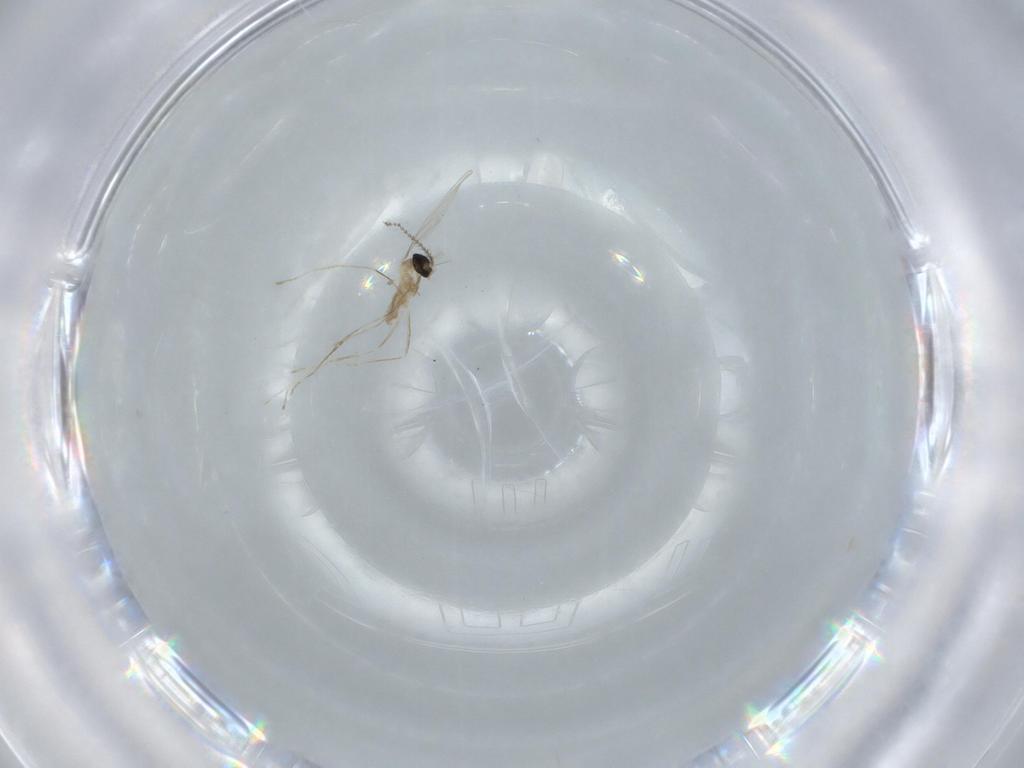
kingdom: Animalia
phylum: Arthropoda
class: Insecta
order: Diptera
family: Cecidomyiidae
